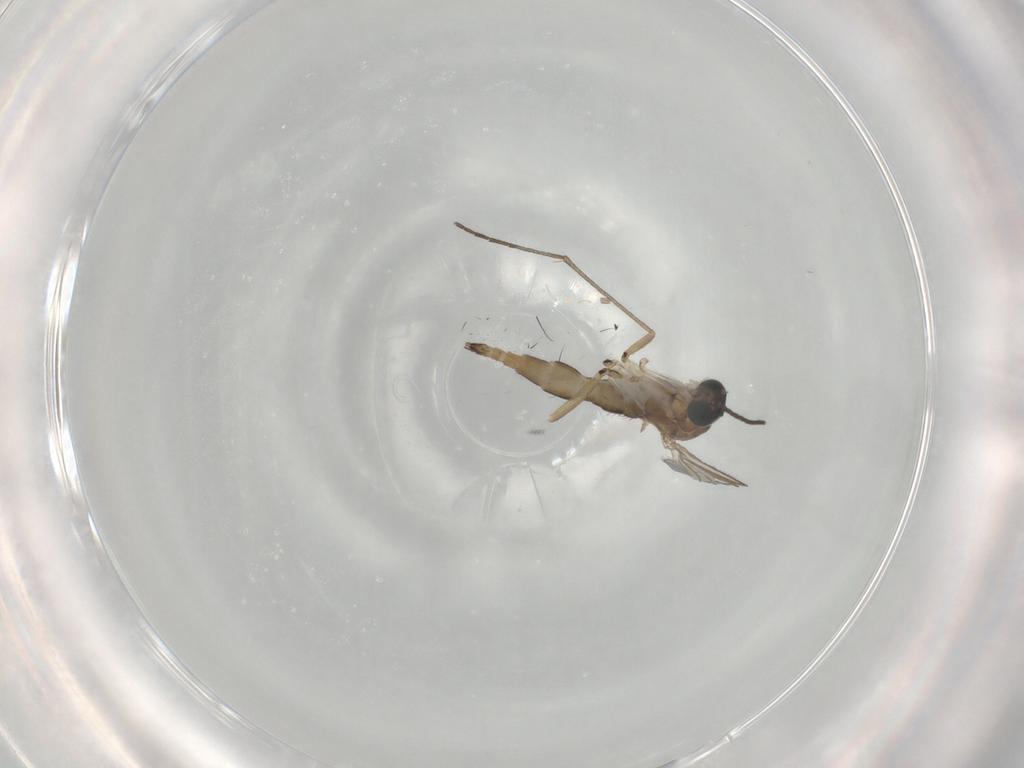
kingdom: Animalia
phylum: Arthropoda
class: Insecta
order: Diptera
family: Sciaridae
